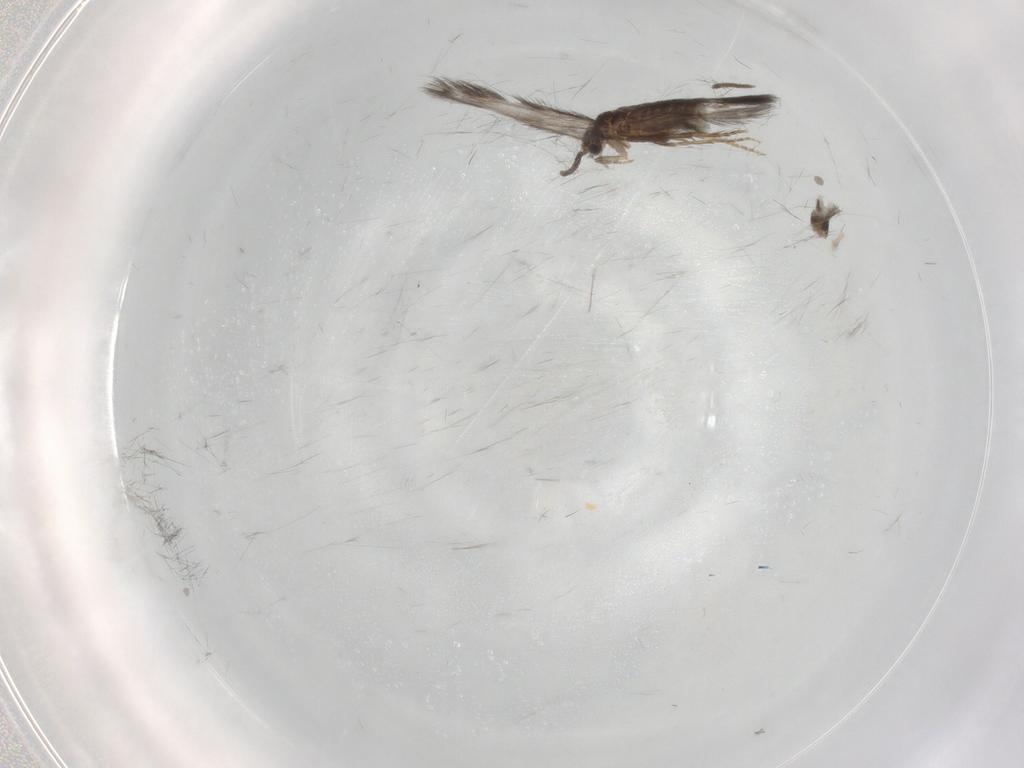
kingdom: Animalia
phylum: Arthropoda
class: Insecta
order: Trichoptera
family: Hydroptilidae
